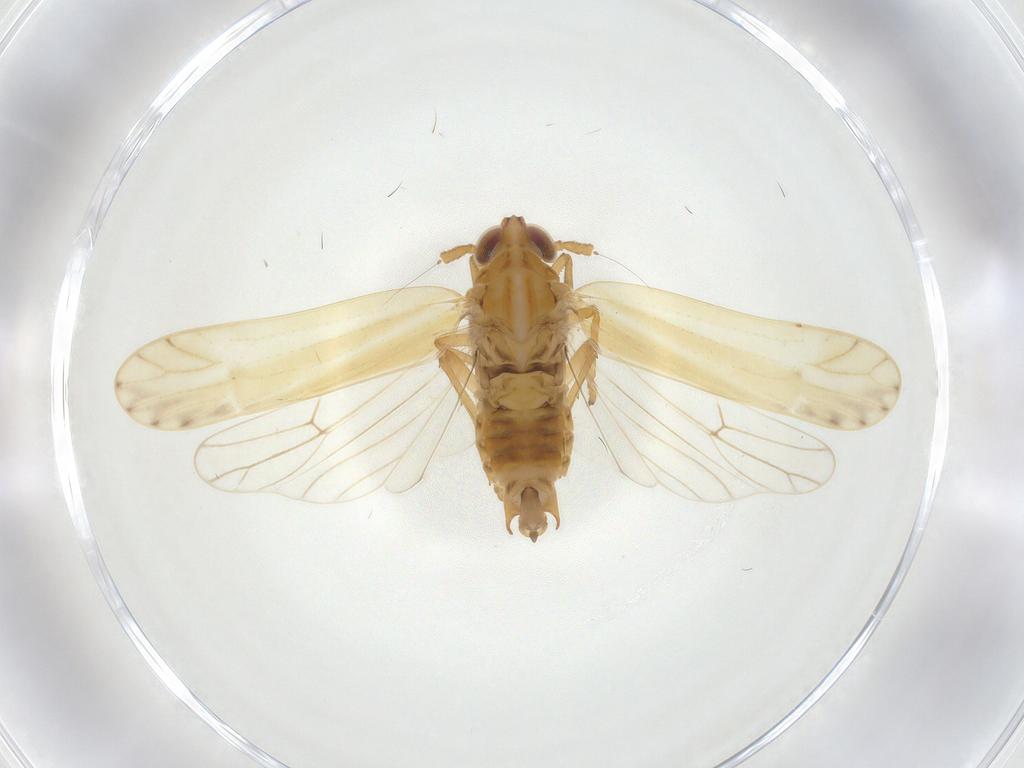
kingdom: Animalia
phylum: Arthropoda
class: Insecta
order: Hemiptera
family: Delphacidae
